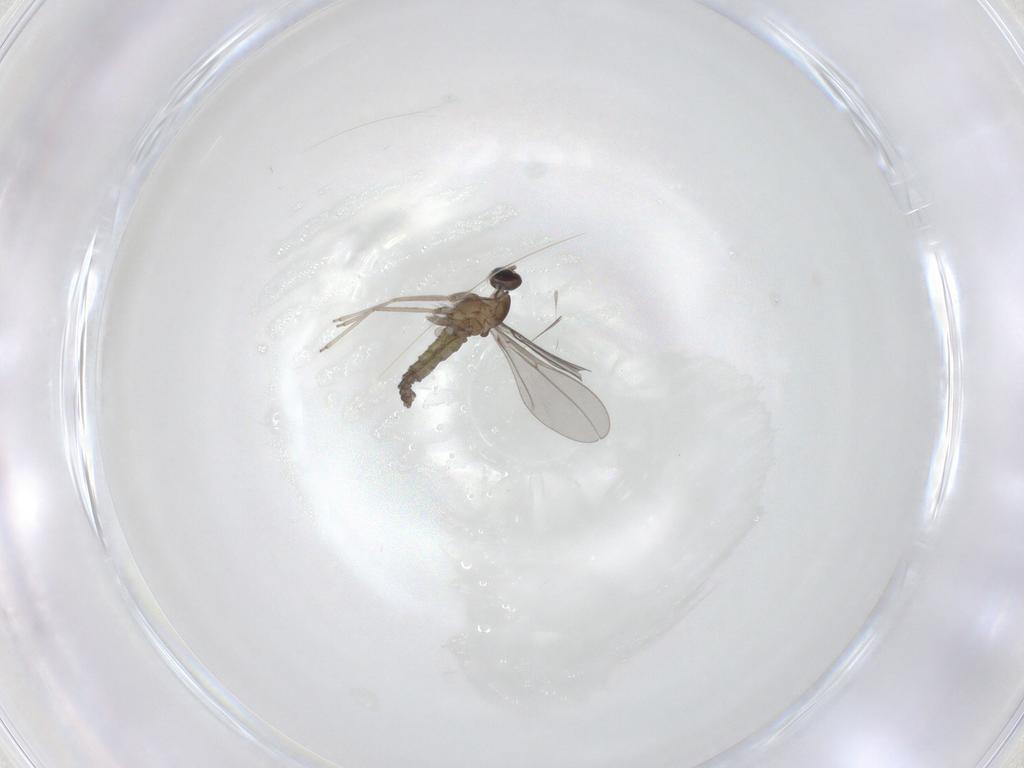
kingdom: Animalia
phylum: Arthropoda
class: Insecta
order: Diptera
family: Cecidomyiidae
